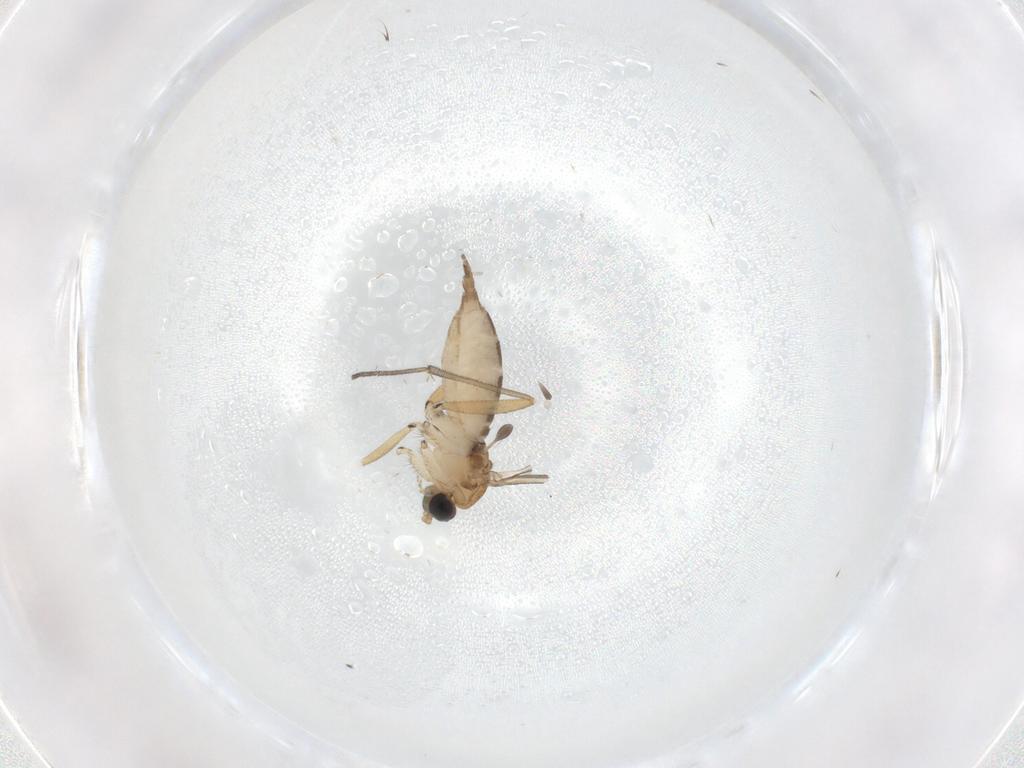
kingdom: Animalia
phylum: Arthropoda
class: Insecta
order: Diptera
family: Sciaridae
